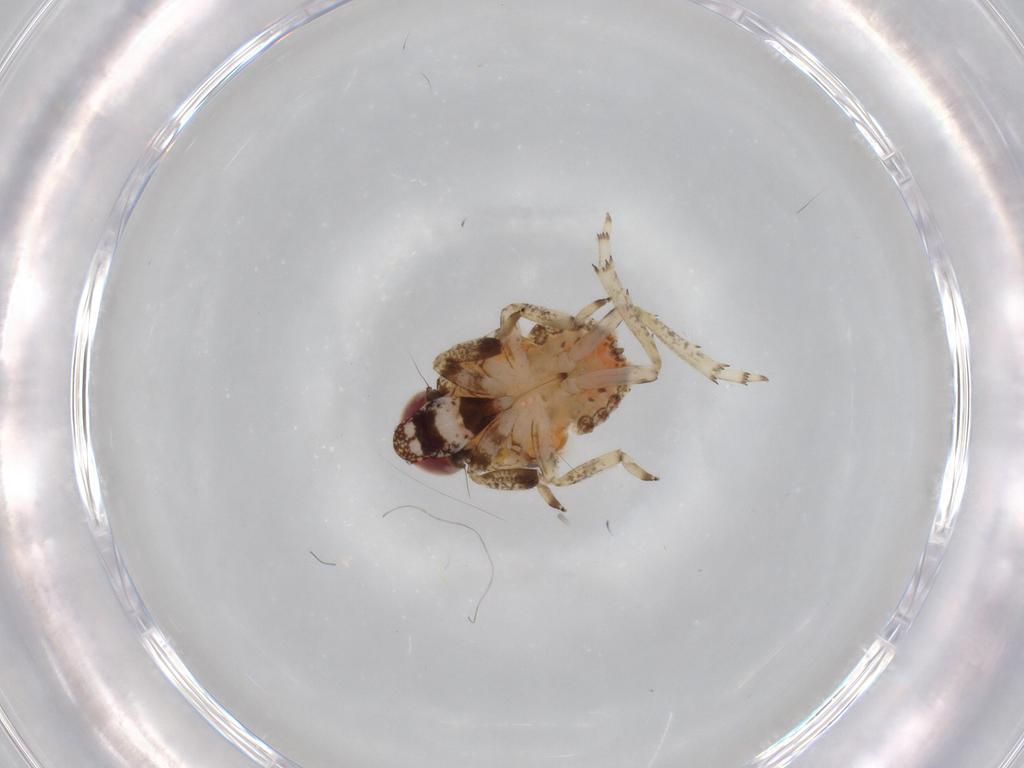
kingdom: Animalia
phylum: Arthropoda
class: Insecta
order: Hemiptera
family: Issidae
